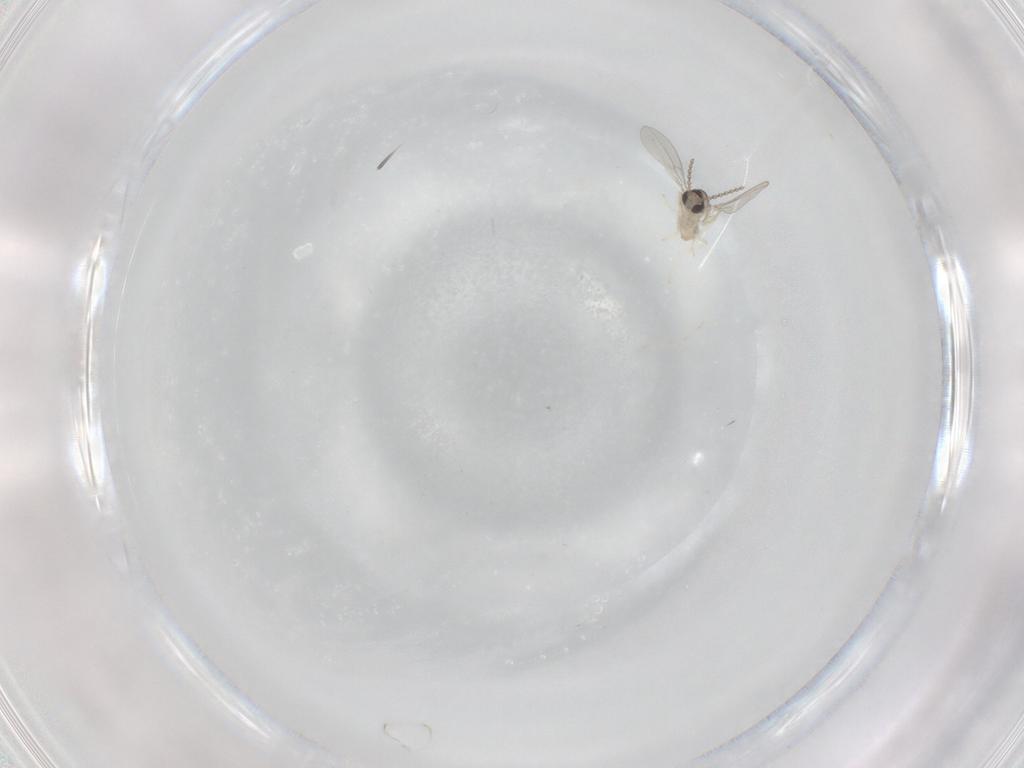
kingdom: Animalia
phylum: Arthropoda
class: Insecta
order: Diptera
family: Cecidomyiidae
